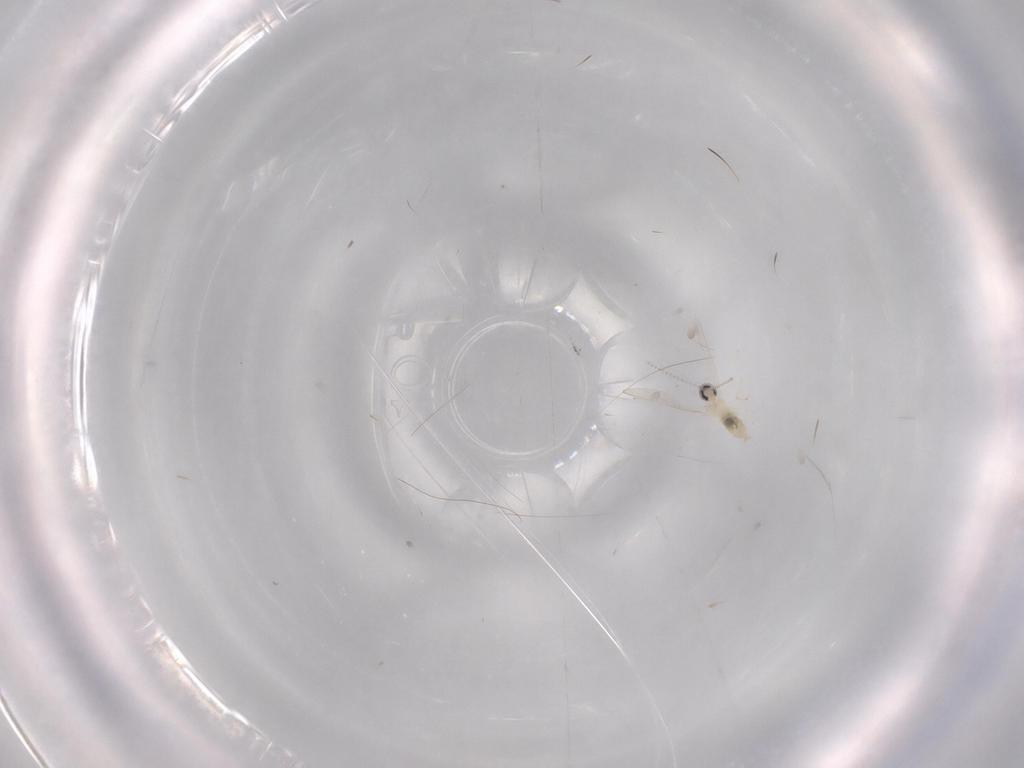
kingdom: Animalia
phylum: Arthropoda
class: Insecta
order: Diptera
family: Cecidomyiidae
